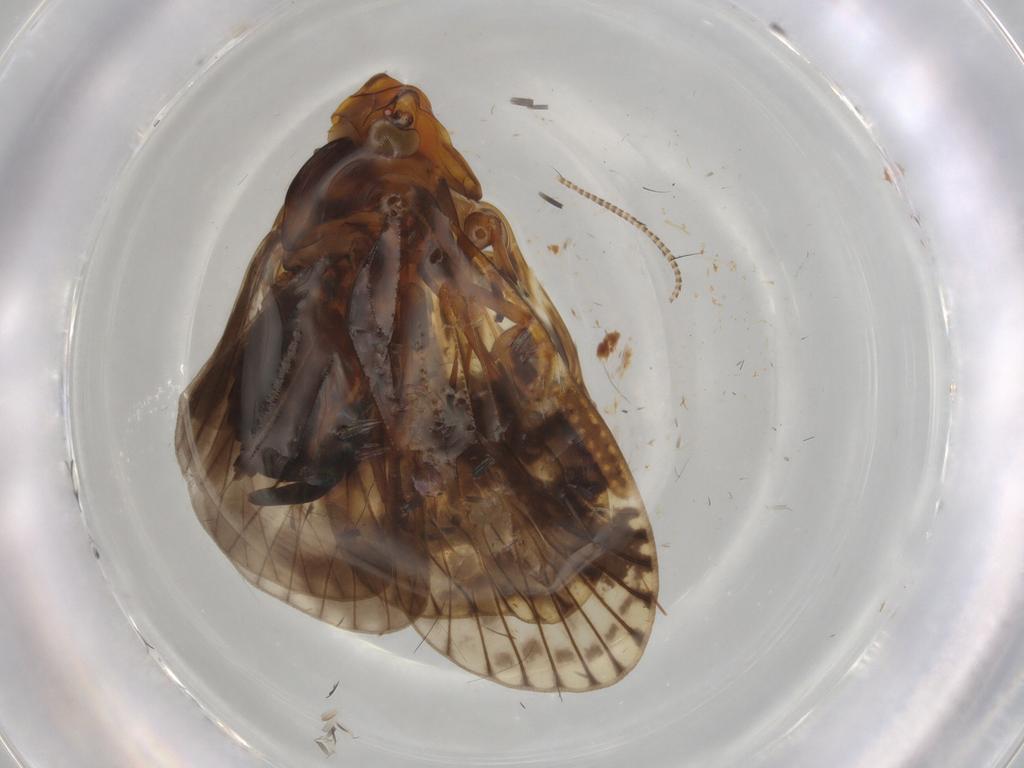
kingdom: Animalia
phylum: Arthropoda
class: Insecta
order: Hemiptera
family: Cicadellidae
